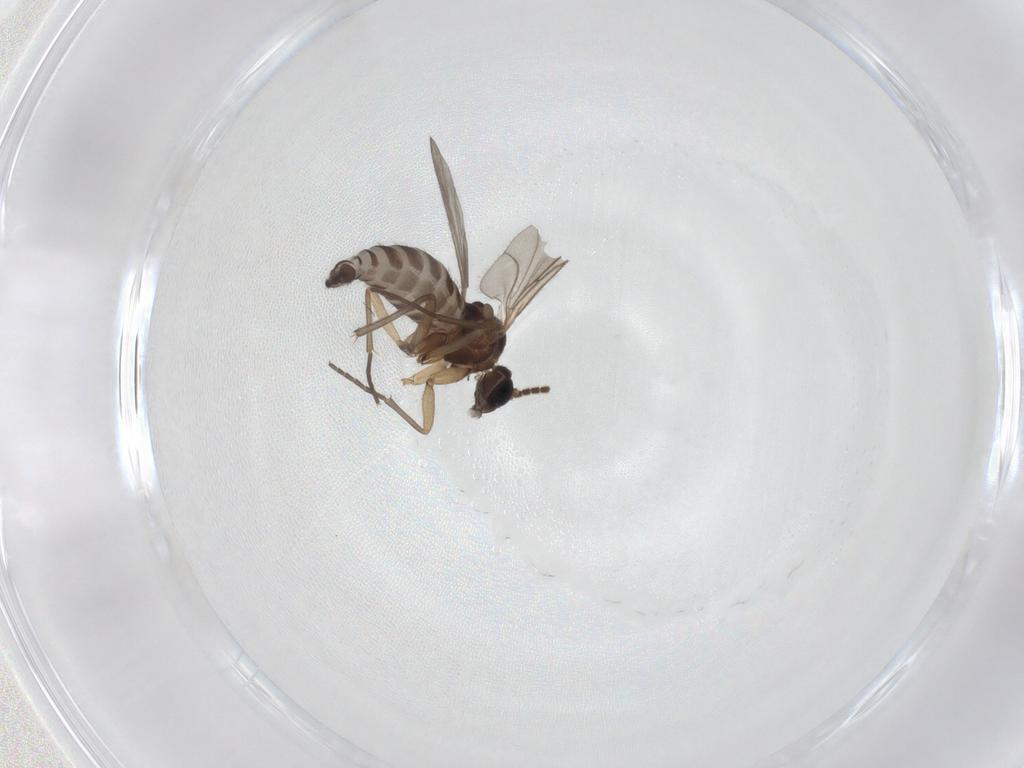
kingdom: Animalia
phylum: Arthropoda
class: Insecta
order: Diptera
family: Sciaridae
